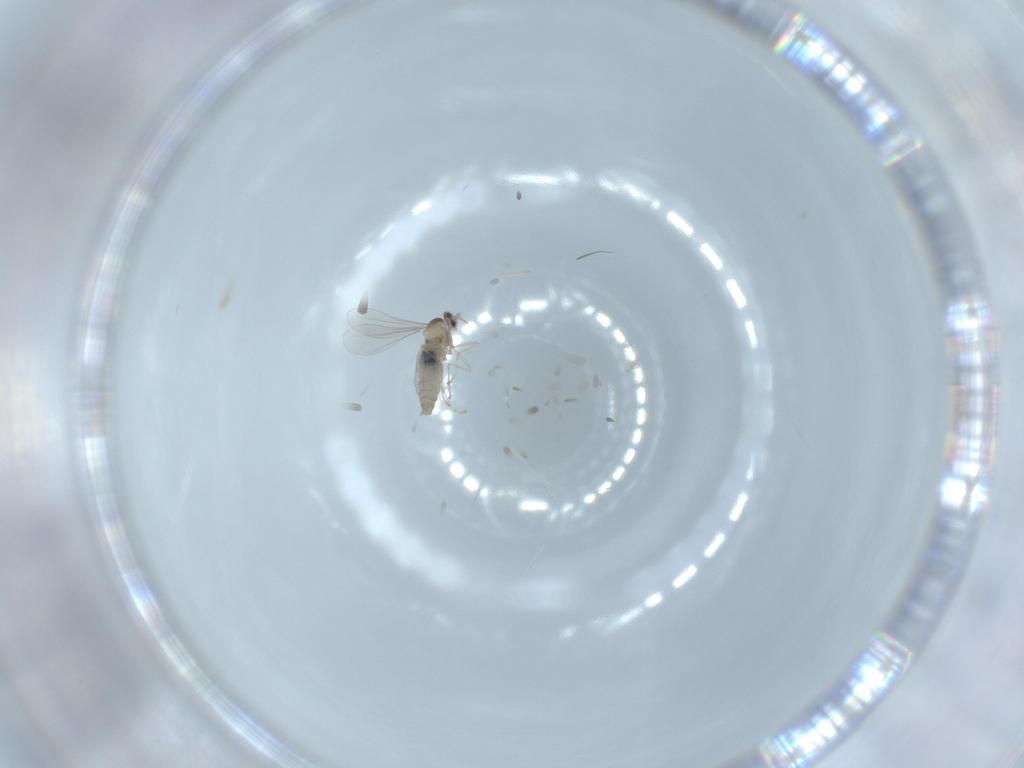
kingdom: Animalia
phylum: Arthropoda
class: Insecta
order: Diptera
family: Cecidomyiidae
